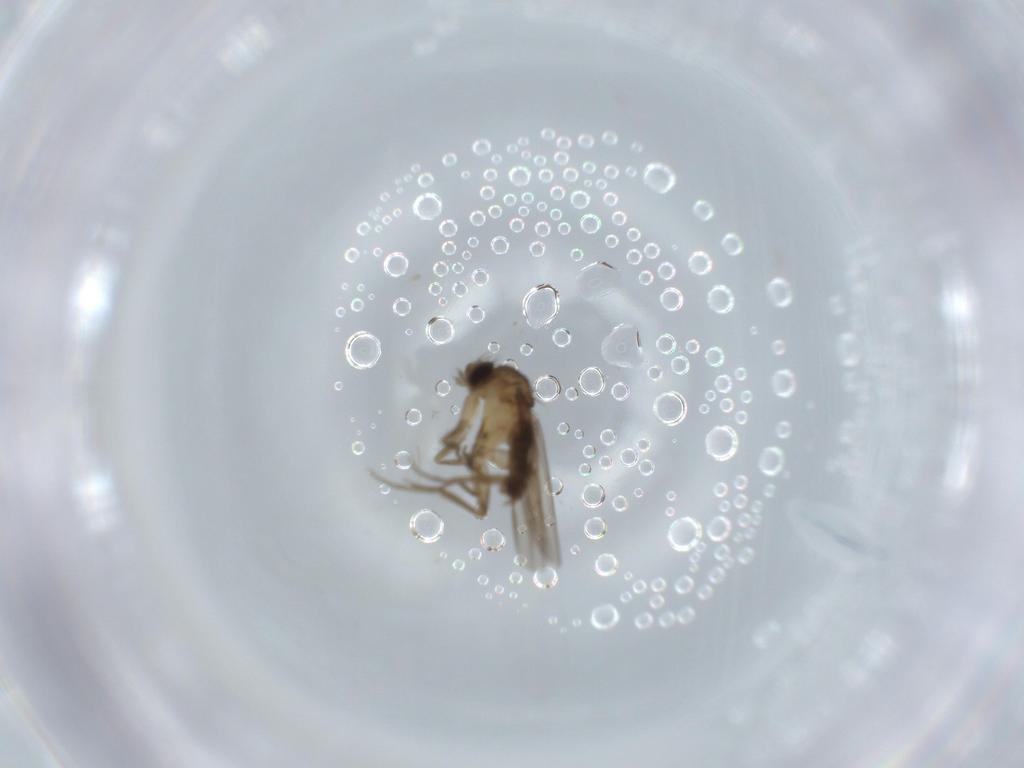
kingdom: Animalia
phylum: Arthropoda
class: Insecta
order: Diptera
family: Phoridae
